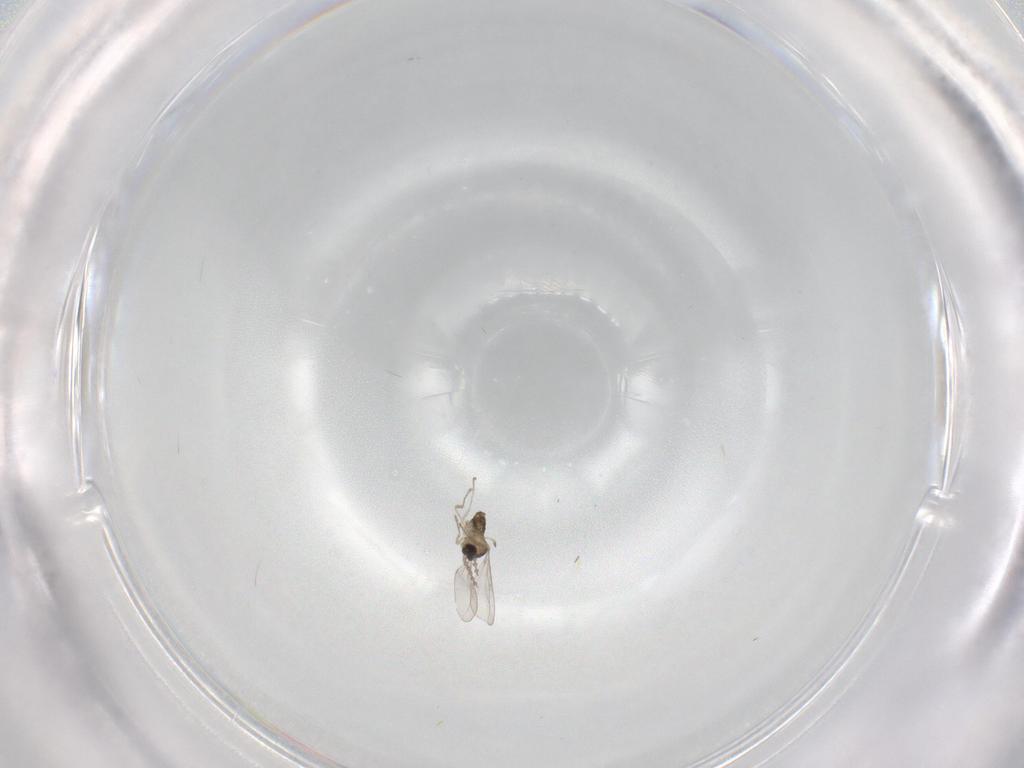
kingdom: Animalia
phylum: Arthropoda
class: Insecta
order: Diptera
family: Cecidomyiidae
